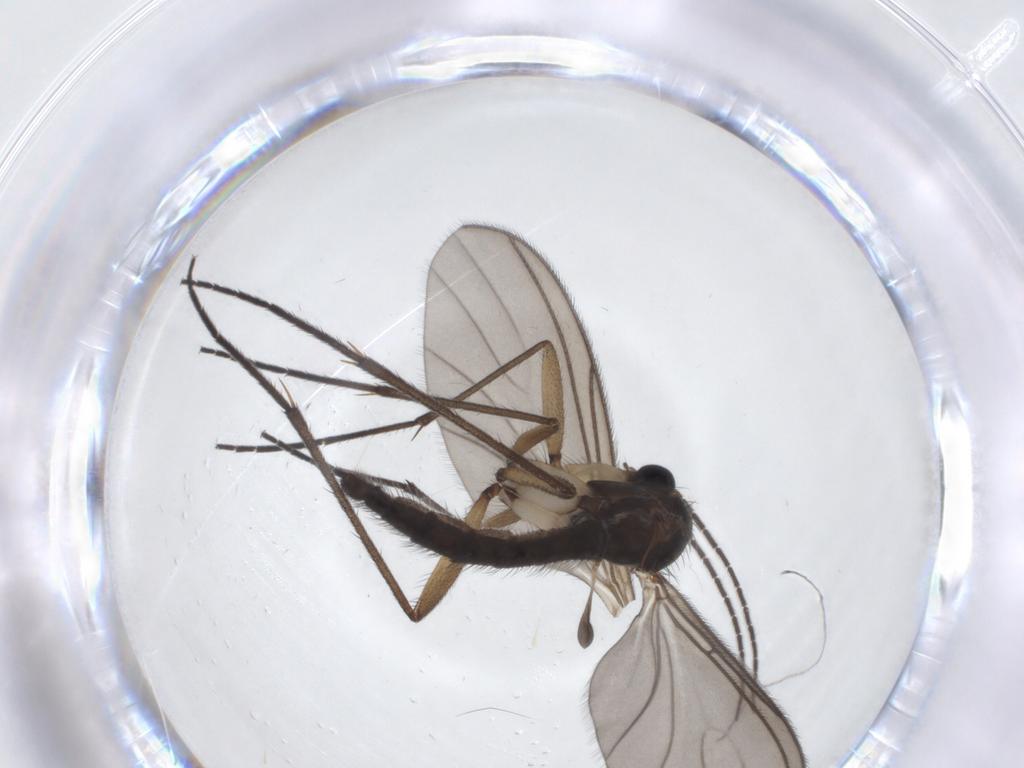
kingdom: Animalia
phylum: Arthropoda
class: Insecta
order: Diptera
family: Sciaridae
